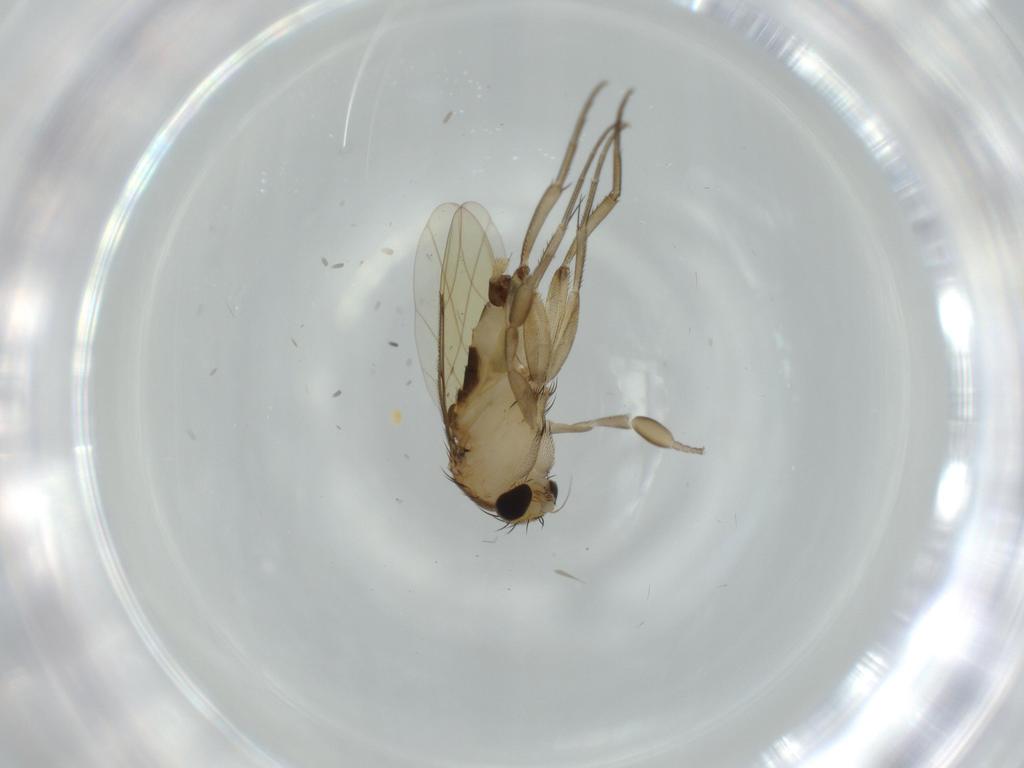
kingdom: Animalia
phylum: Arthropoda
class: Insecta
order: Diptera
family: Phoridae
